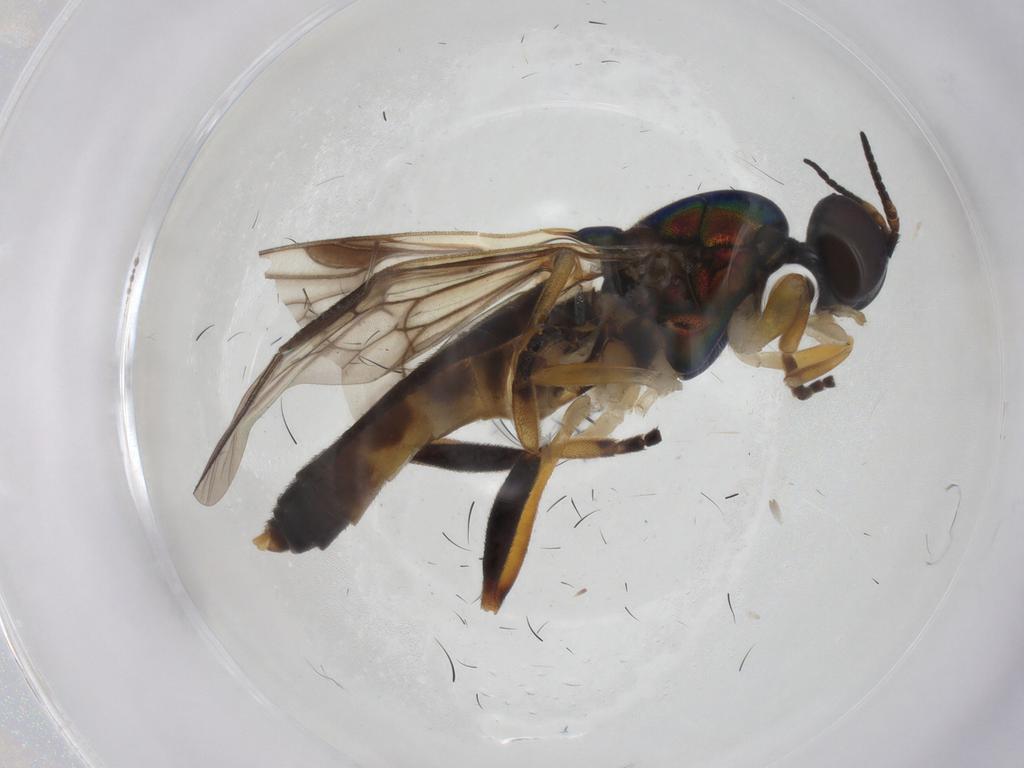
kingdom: Animalia
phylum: Arthropoda
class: Insecta
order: Diptera
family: Stratiomyidae
